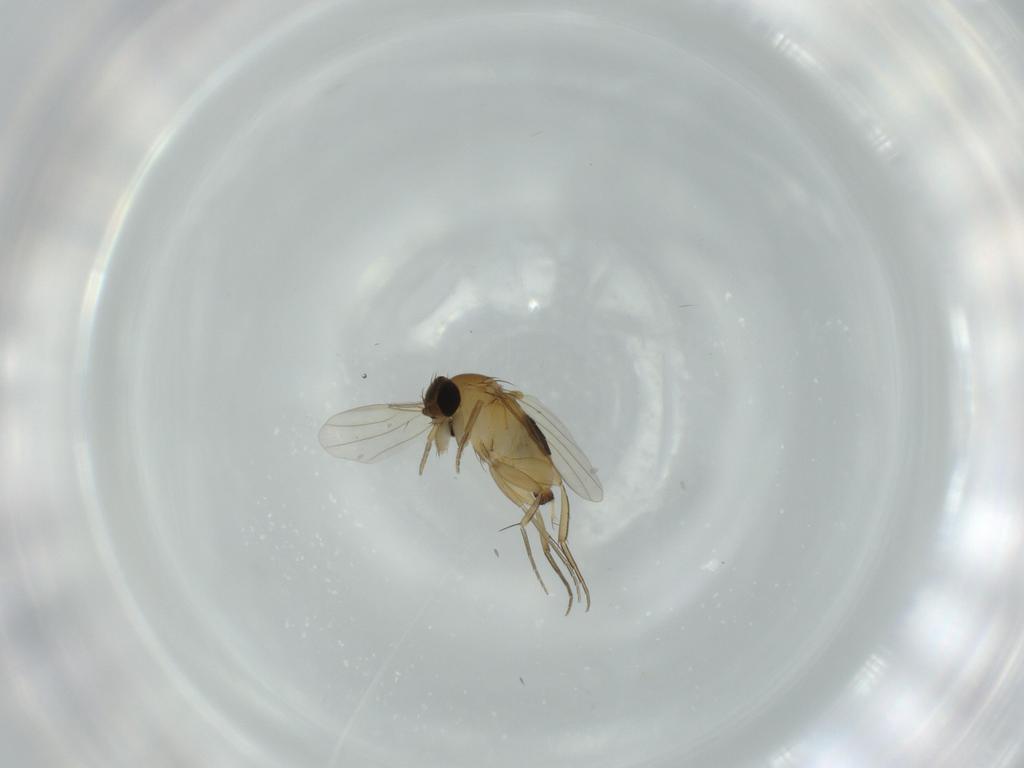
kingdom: Animalia
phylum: Arthropoda
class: Insecta
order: Diptera
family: Phoridae
